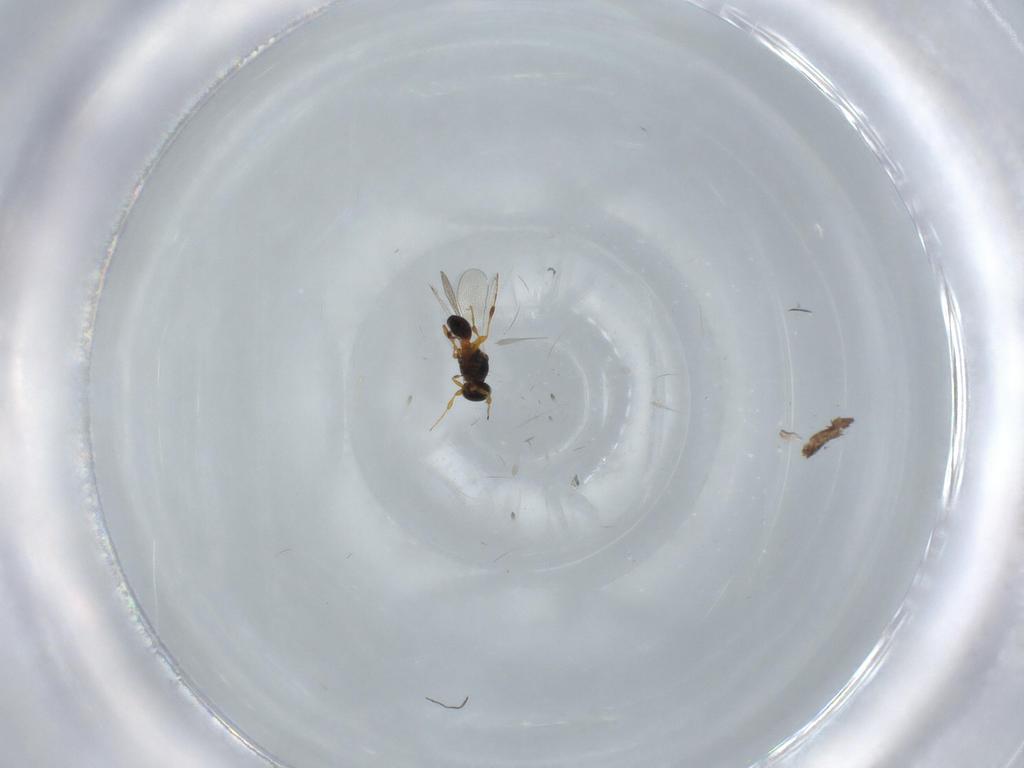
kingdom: Animalia
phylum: Arthropoda
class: Insecta
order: Hymenoptera
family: Platygastridae
